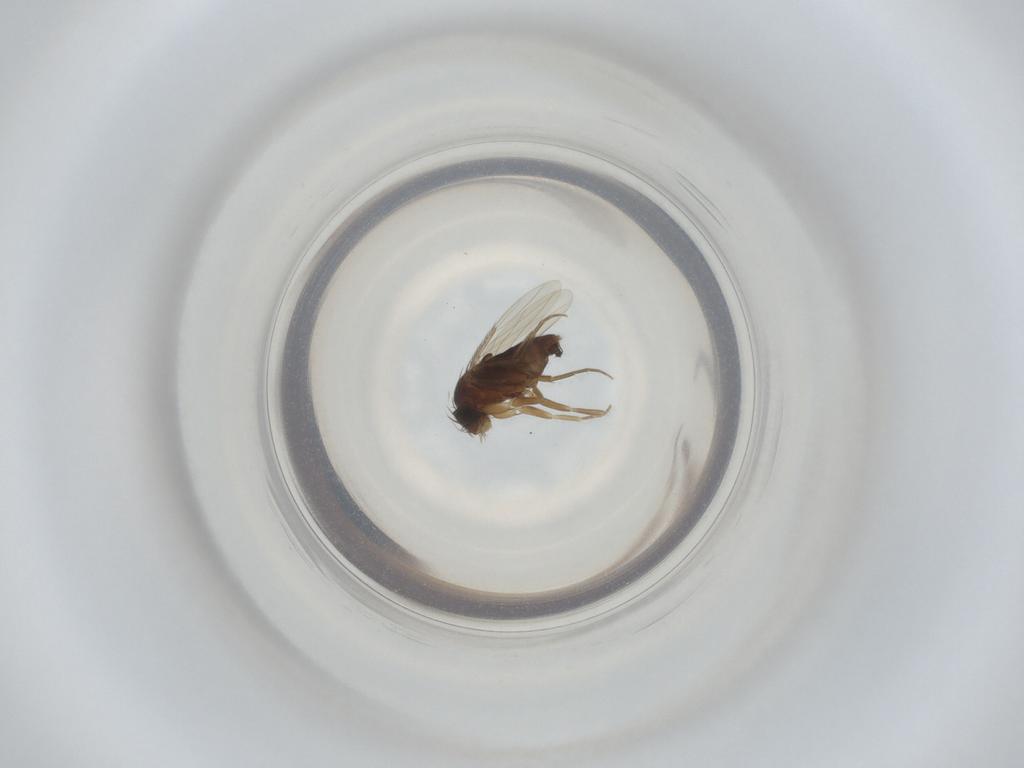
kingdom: Animalia
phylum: Arthropoda
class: Insecta
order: Diptera
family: Phoridae
